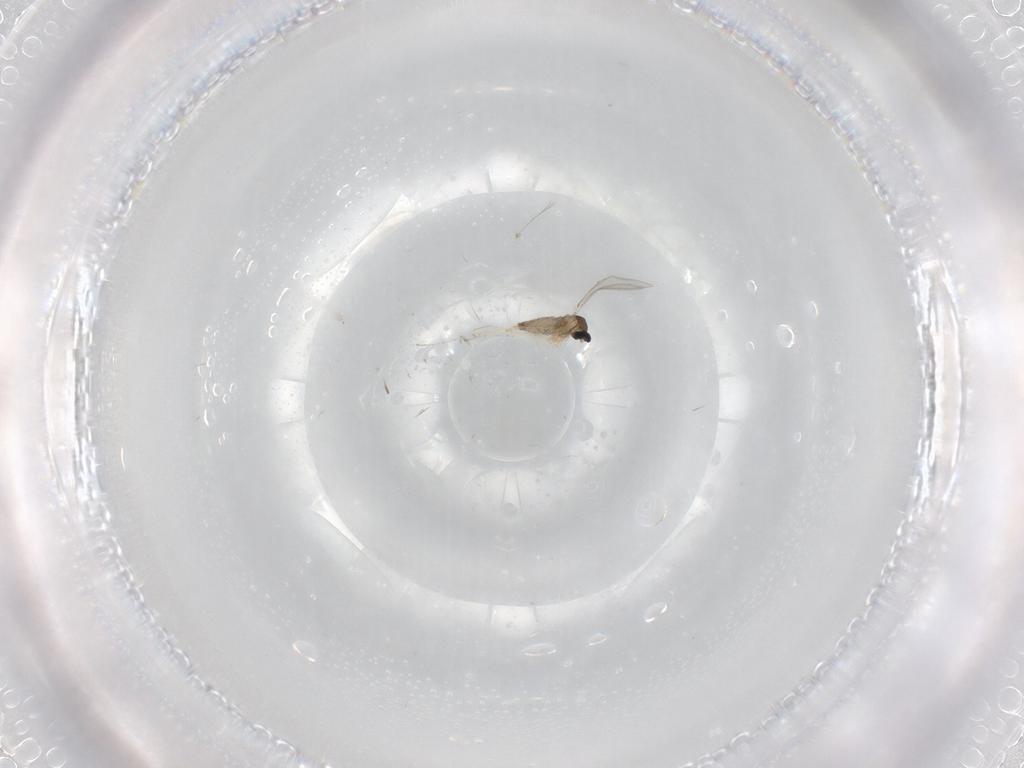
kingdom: Animalia
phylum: Arthropoda
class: Insecta
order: Diptera
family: Cecidomyiidae
